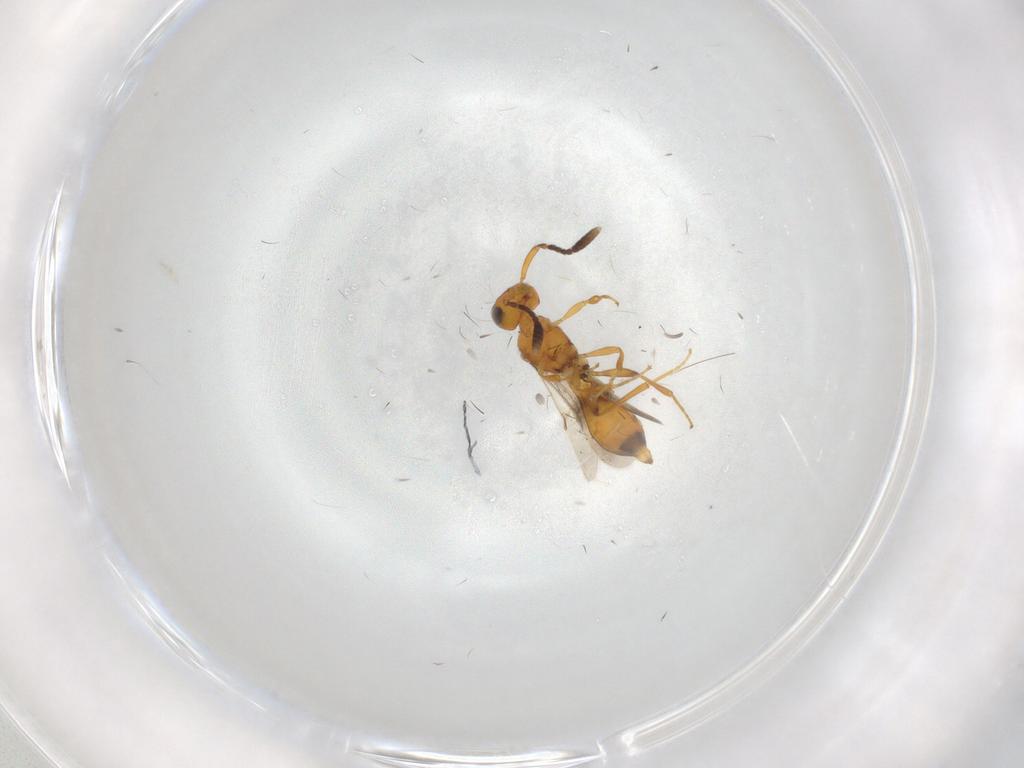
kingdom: Animalia
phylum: Arthropoda
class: Insecta
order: Hymenoptera
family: Scelionidae
